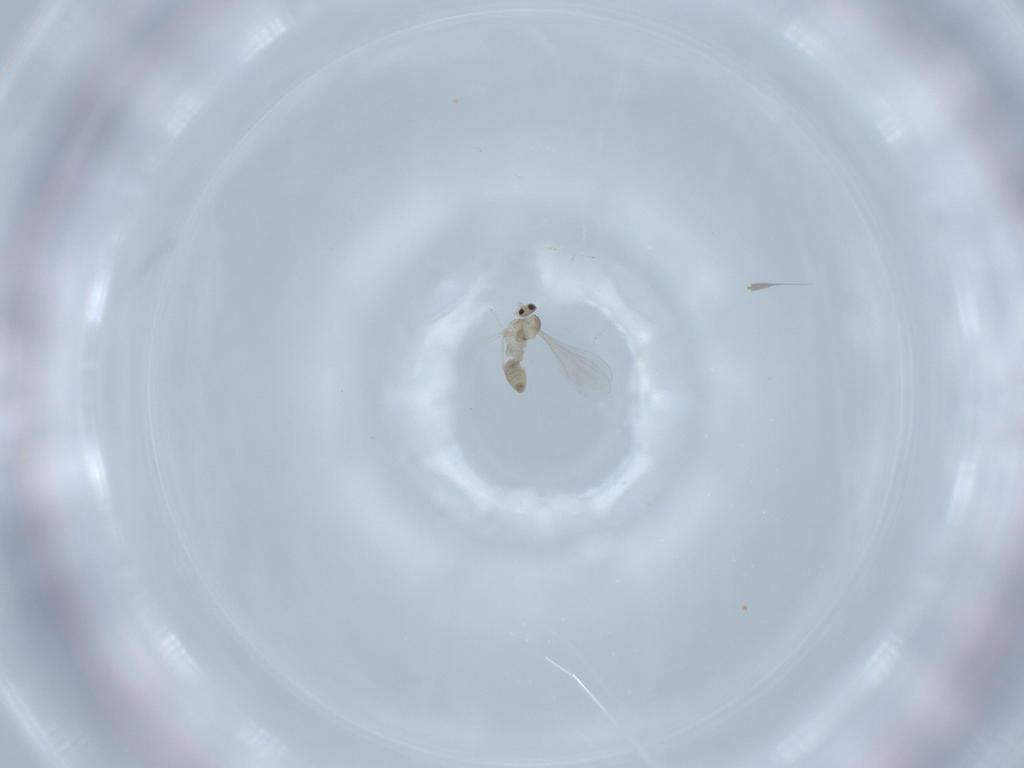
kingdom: Animalia
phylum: Arthropoda
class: Insecta
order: Diptera
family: Cecidomyiidae
